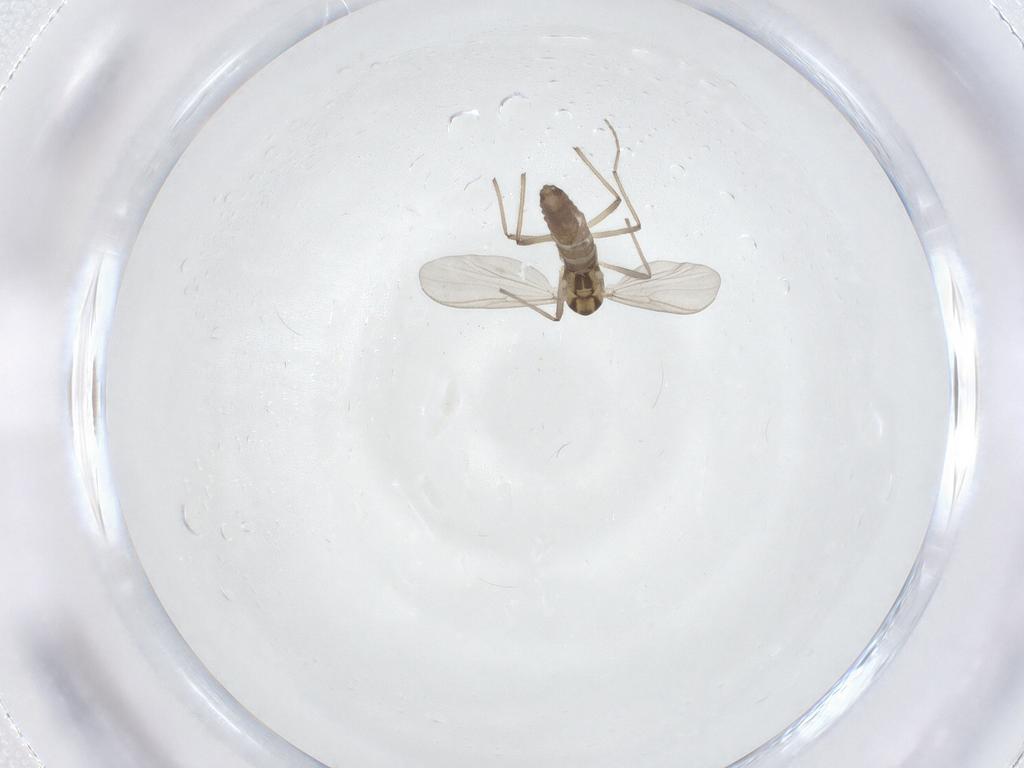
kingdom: Animalia
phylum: Arthropoda
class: Insecta
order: Diptera
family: Chironomidae
